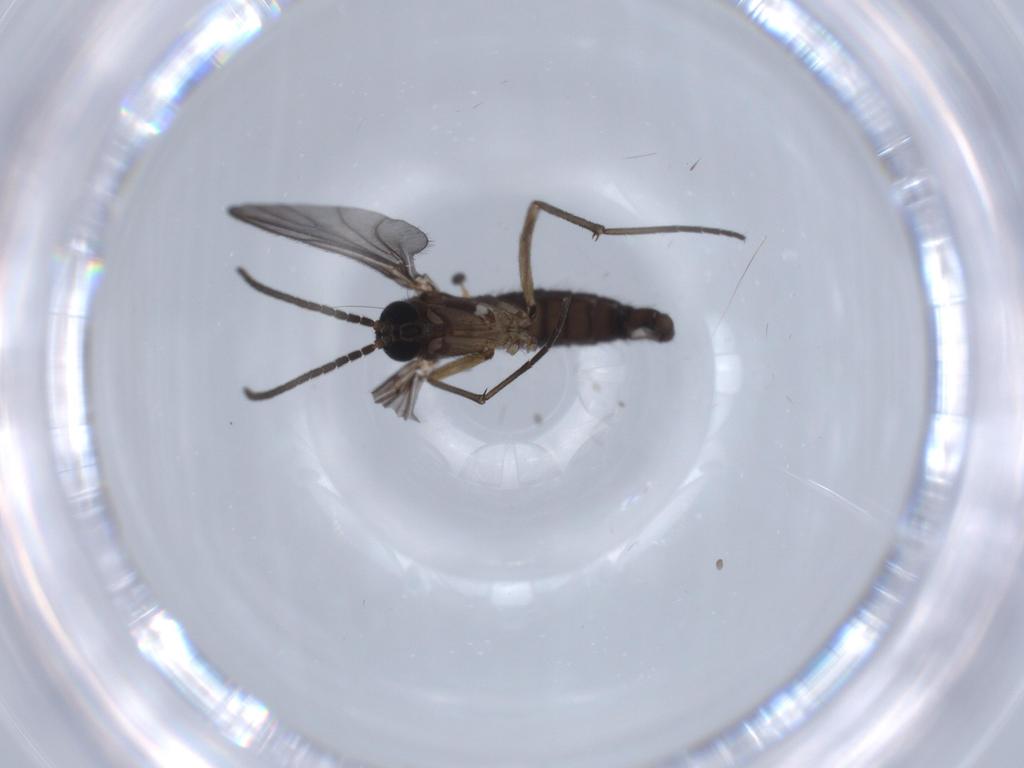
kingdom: Animalia
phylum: Arthropoda
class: Insecta
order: Diptera
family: Sciaridae
